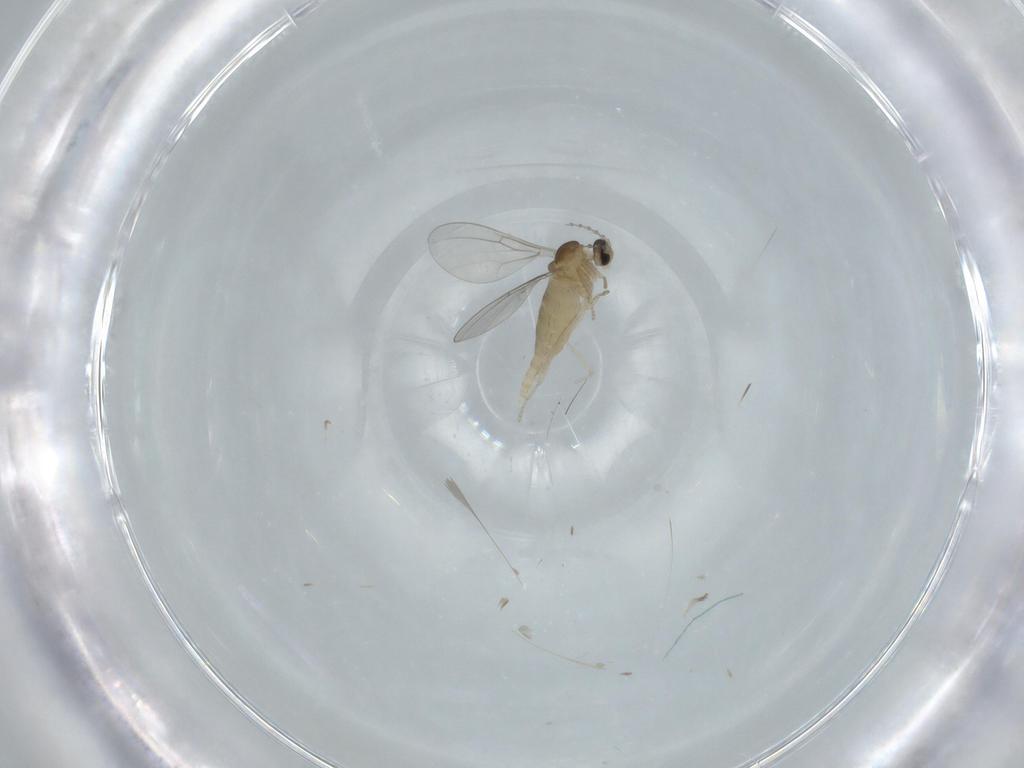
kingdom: Animalia
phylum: Arthropoda
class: Insecta
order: Diptera
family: Cecidomyiidae
